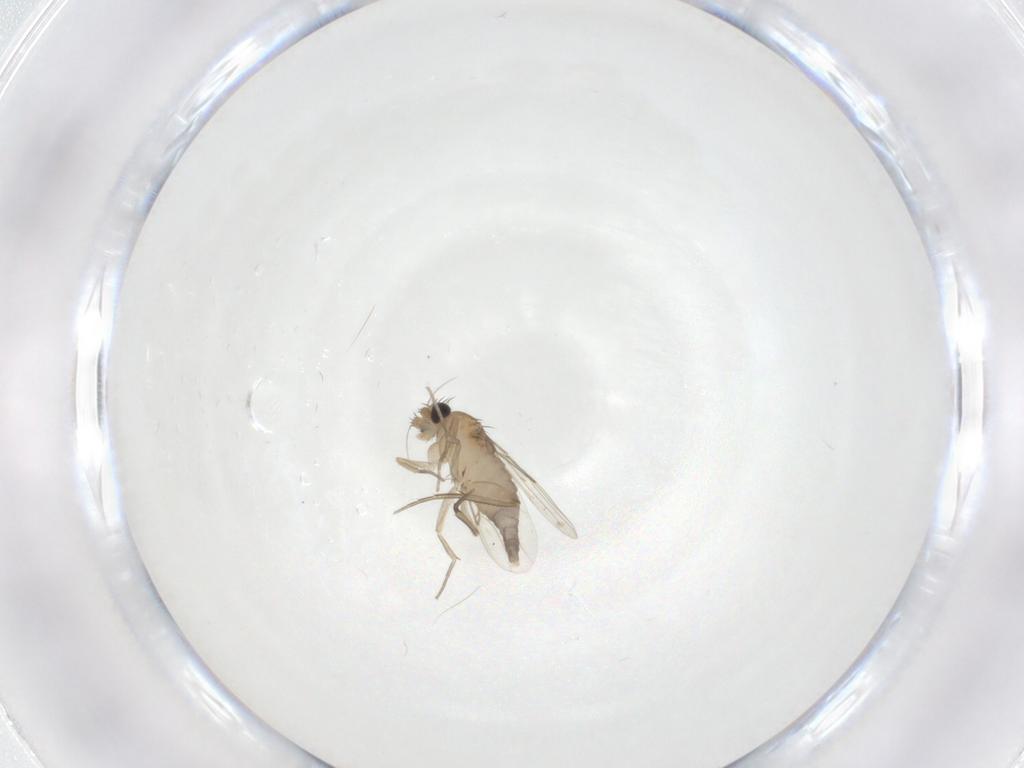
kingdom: Animalia
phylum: Arthropoda
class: Insecta
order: Diptera
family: Phoridae
